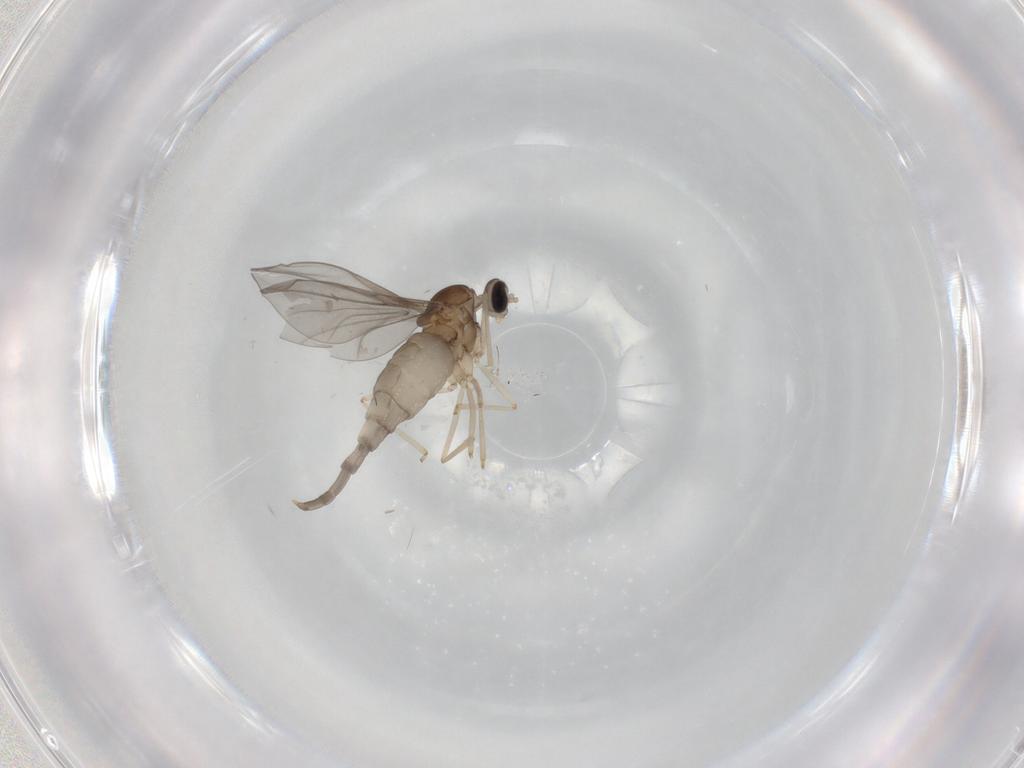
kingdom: Animalia
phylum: Arthropoda
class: Insecta
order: Diptera
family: Cecidomyiidae
